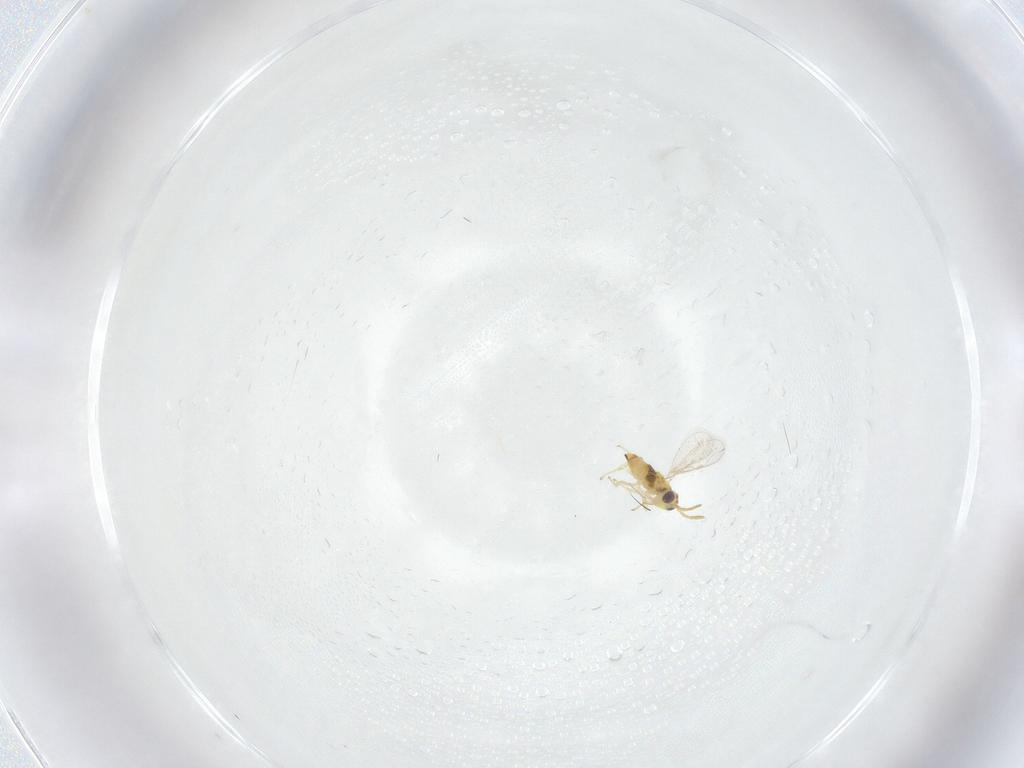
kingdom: Animalia
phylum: Arthropoda
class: Insecta
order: Hymenoptera
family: Aphelinidae
